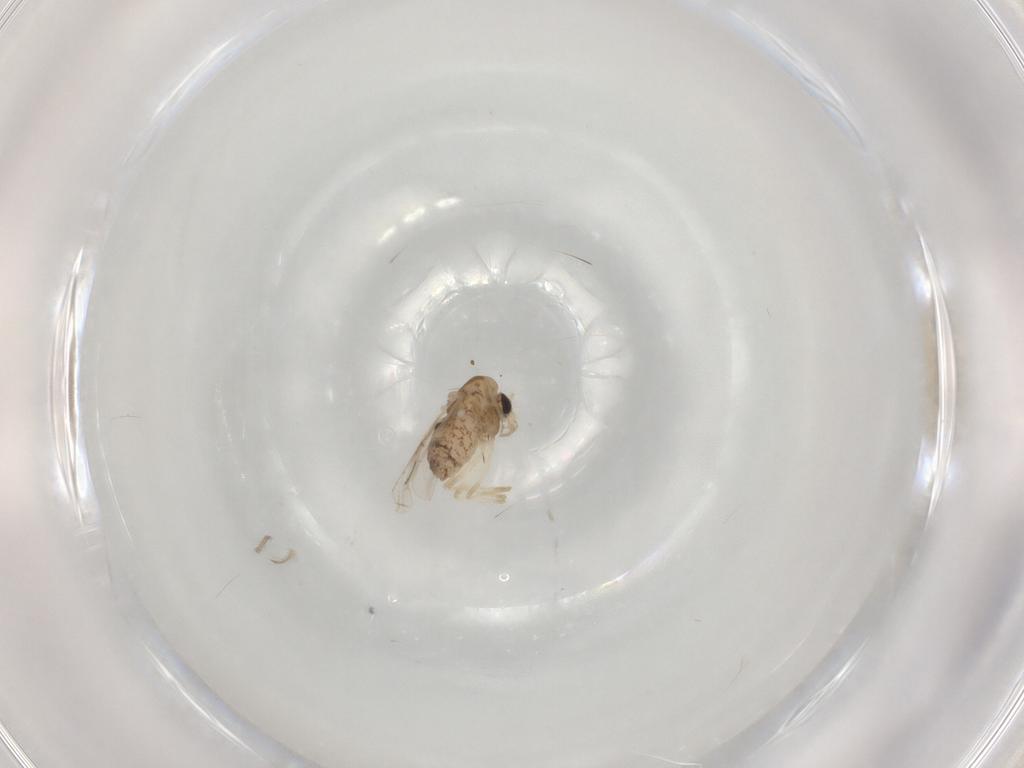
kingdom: Animalia
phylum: Arthropoda
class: Insecta
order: Diptera
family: Chironomidae
